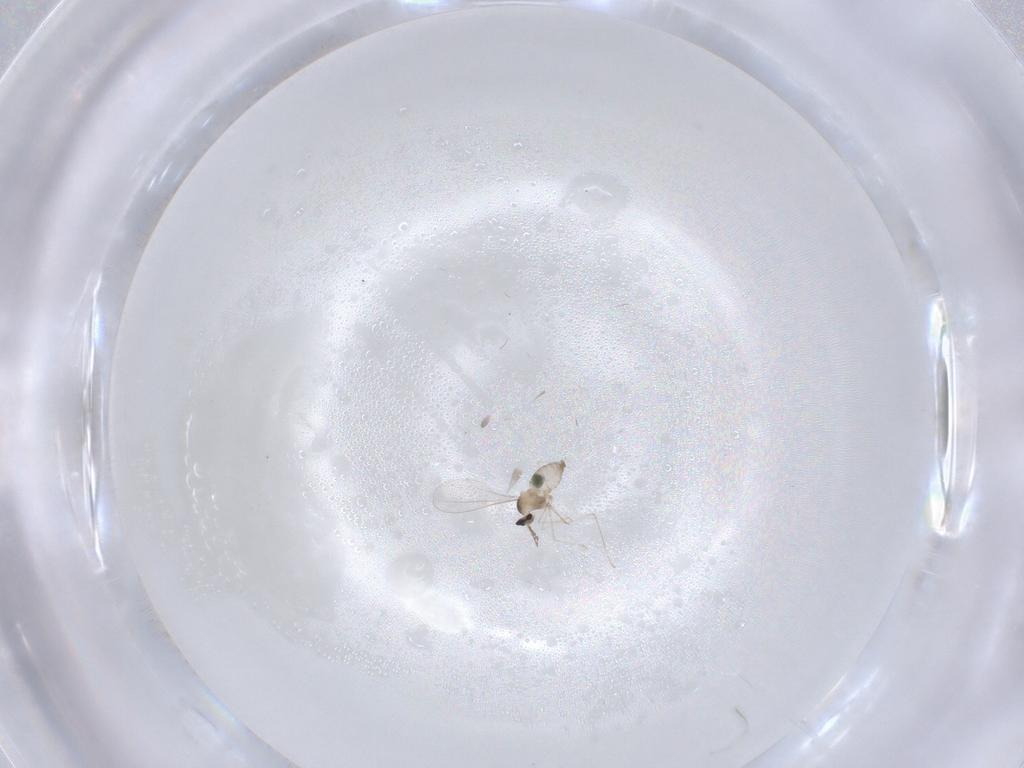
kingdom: Animalia
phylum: Arthropoda
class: Insecta
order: Diptera
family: Cecidomyiidae
